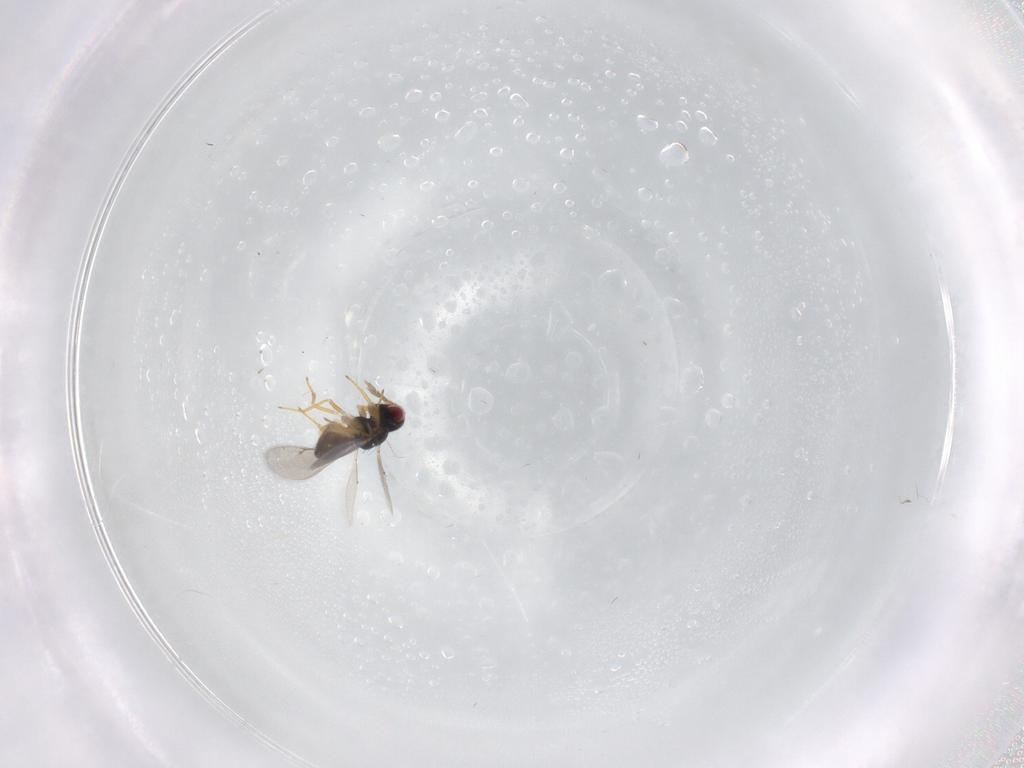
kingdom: Animalia
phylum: Arthropoda
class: Insecta
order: Hymenoptera
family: Eulophidae
